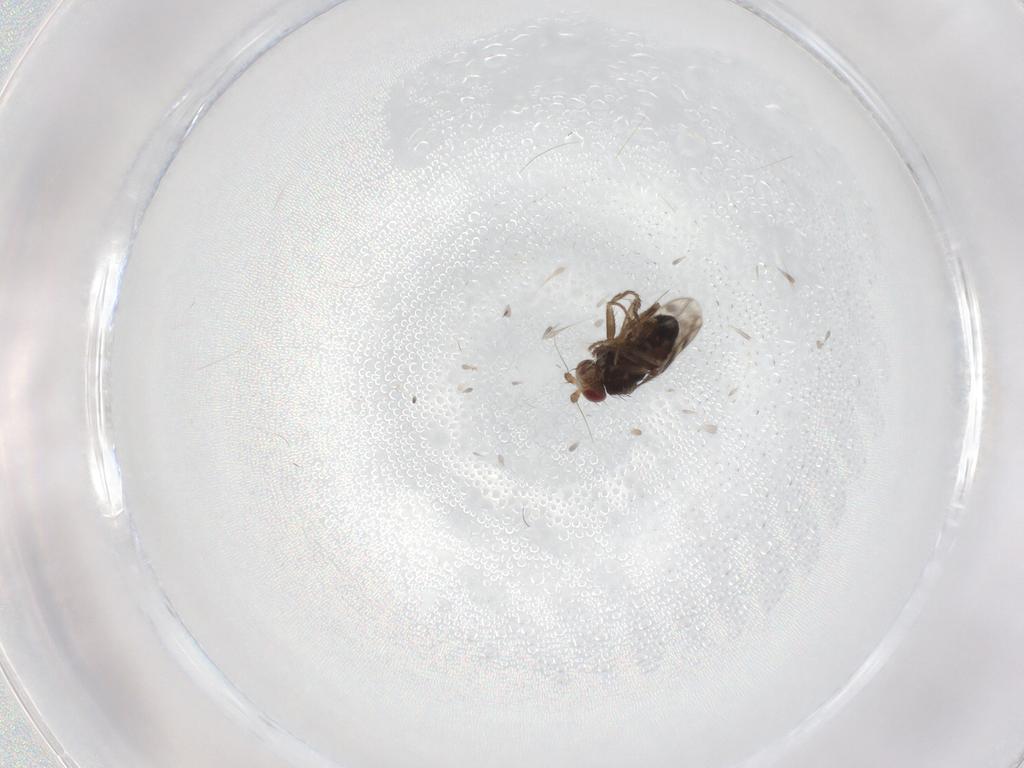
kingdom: Animalia
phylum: Arthropoda
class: Insecta
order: Diptera
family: Sphaeroceridae
